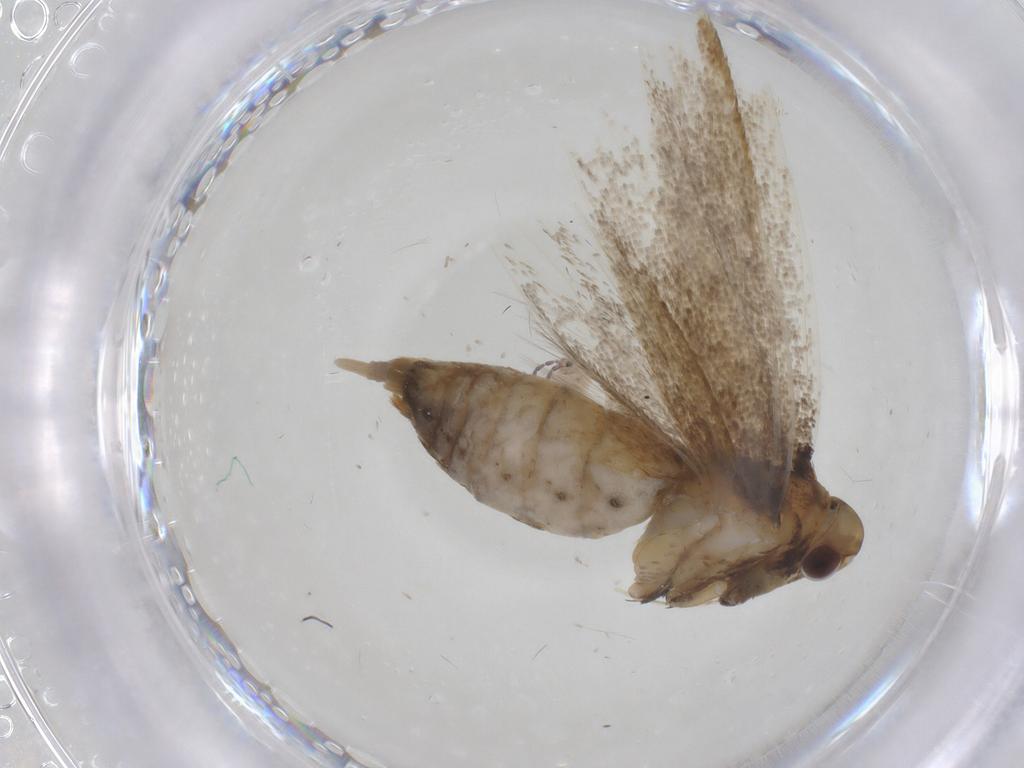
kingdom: Animalia
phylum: Arthropoda
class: Insecta
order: Lepidoptera
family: Lecithoceridae
